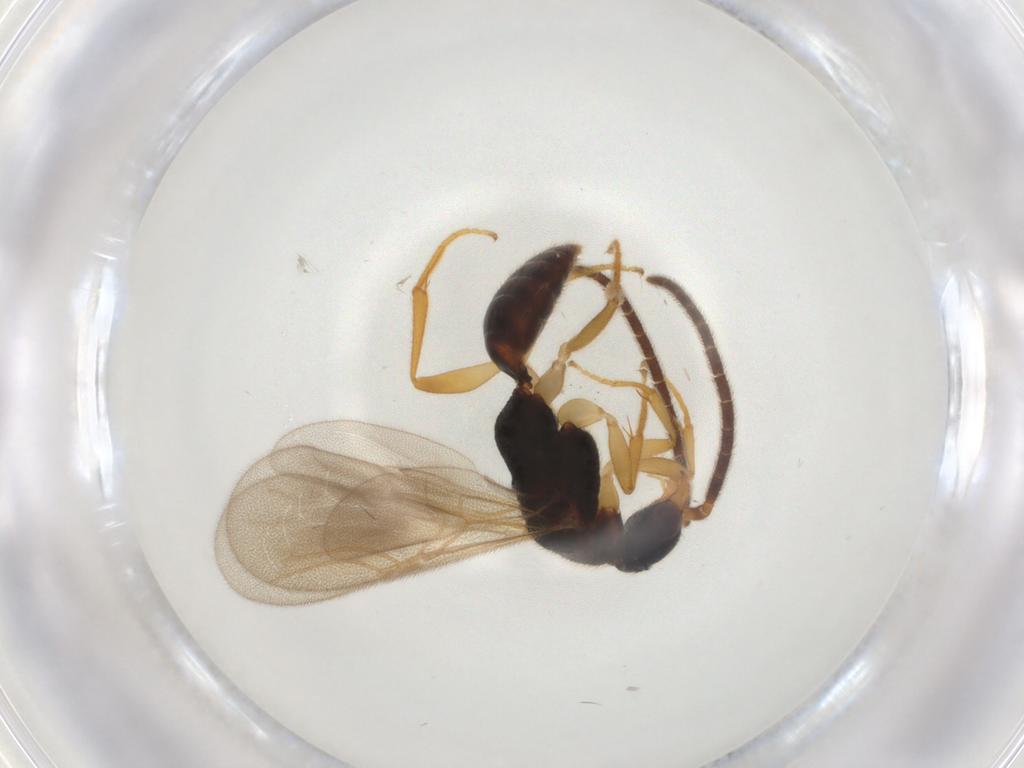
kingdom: Animalia
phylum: Arthropoda
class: Insecta
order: Hymenoptera
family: Bethylidae
